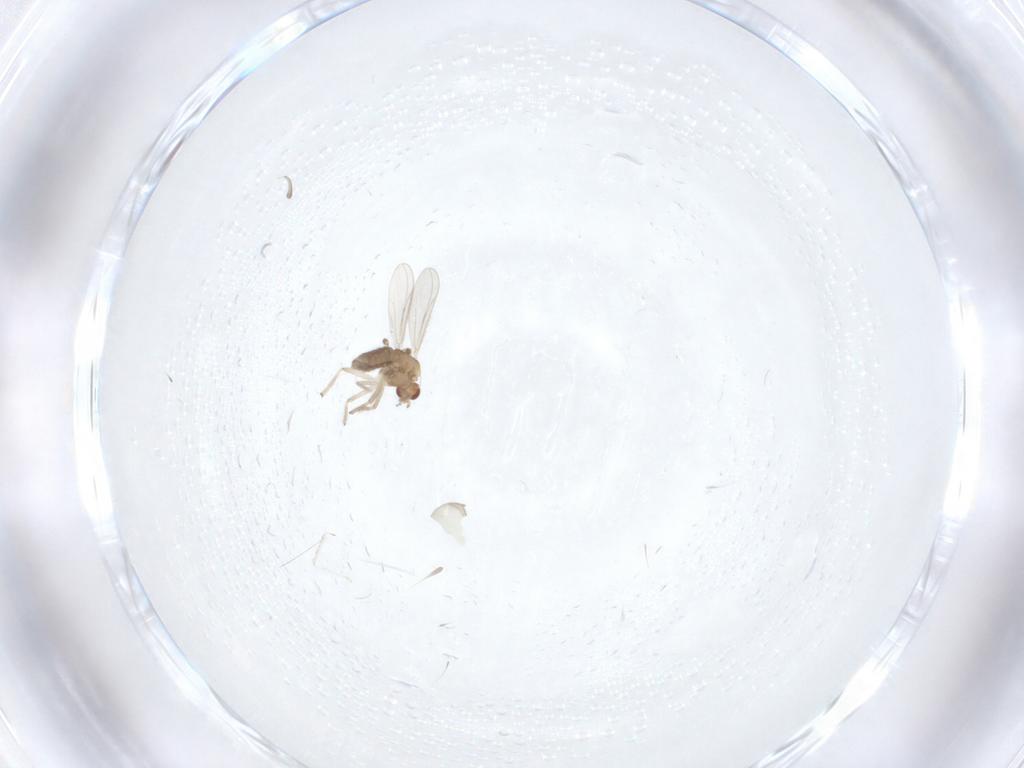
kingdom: Animalia
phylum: Arthropoda
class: Insecta
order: Diptera
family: Chironomidae
